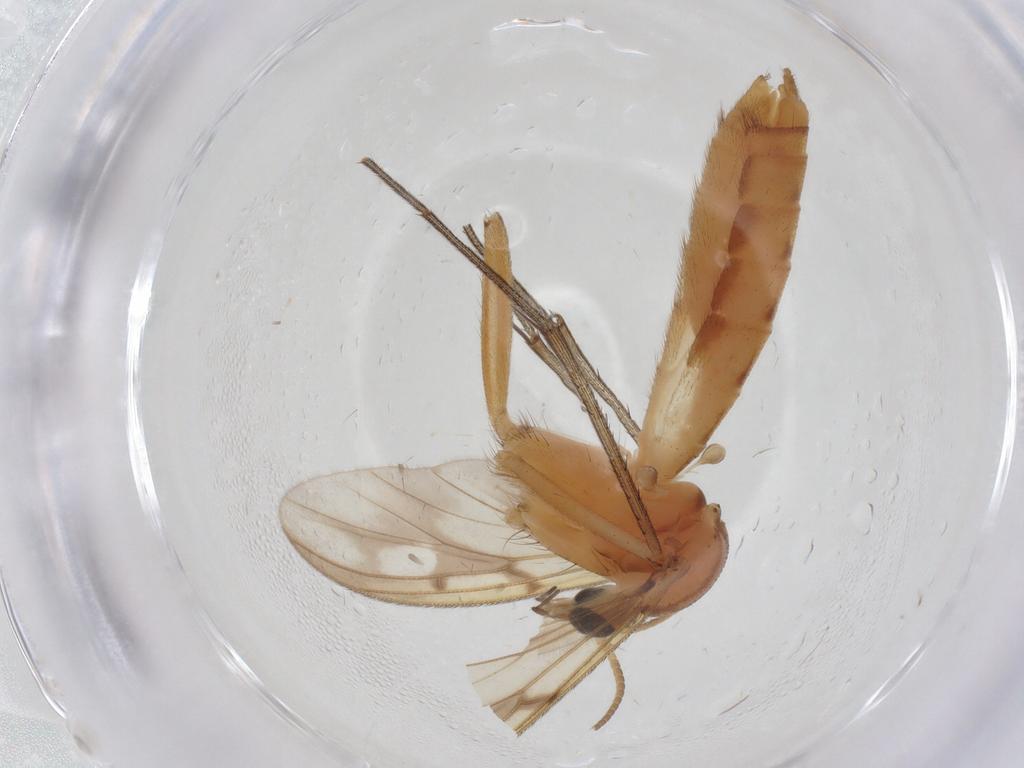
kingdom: Animalia
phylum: Arthropoda
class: Insecta
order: Diptera
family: Mycetophilidae
